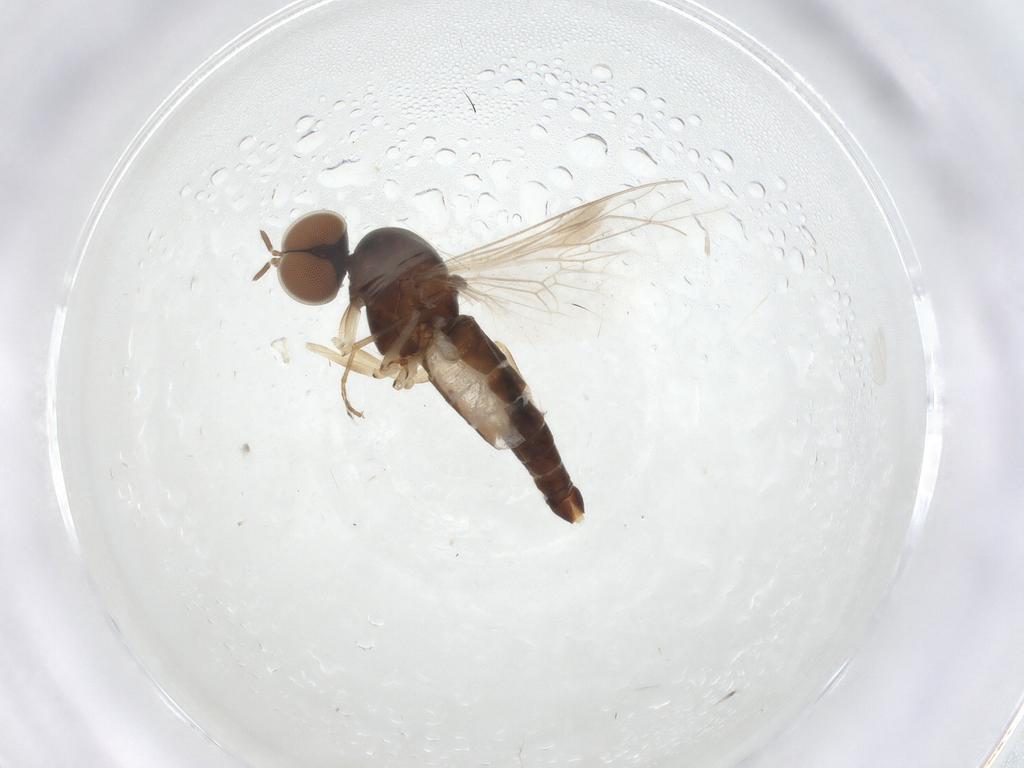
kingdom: Animalia
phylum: Arthropoda
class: Insecta
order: Diptera
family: Scenopinidae
